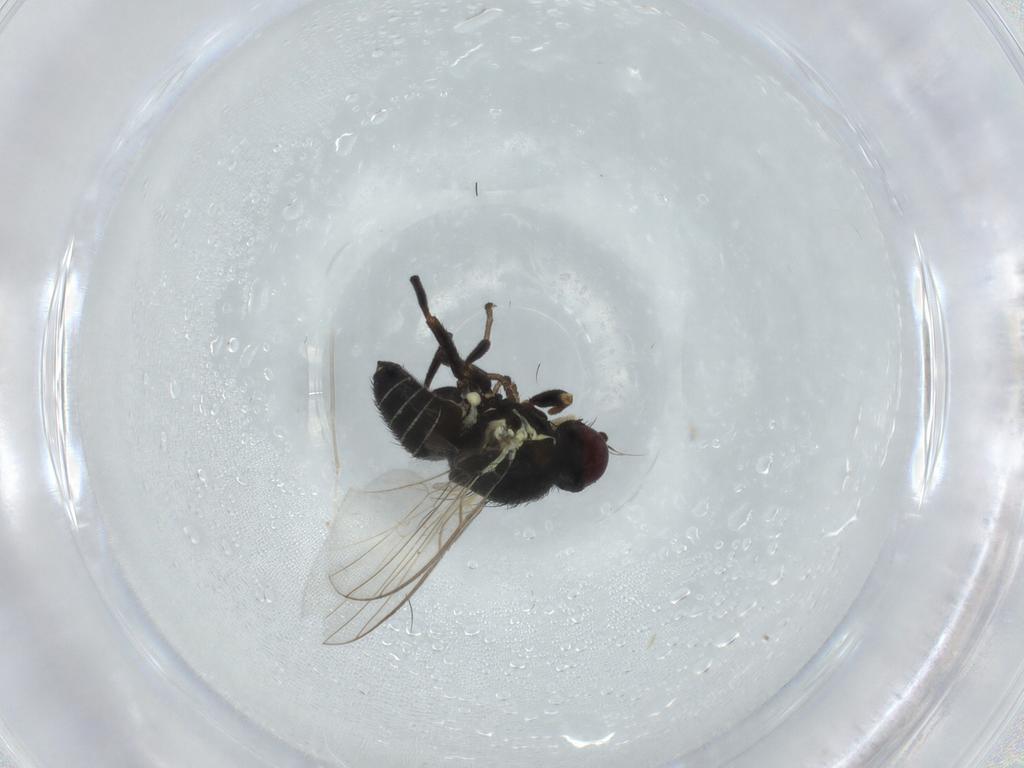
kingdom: Animalia
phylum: Arthropoda
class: Insecta
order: Diptera
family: Agromyzidae
